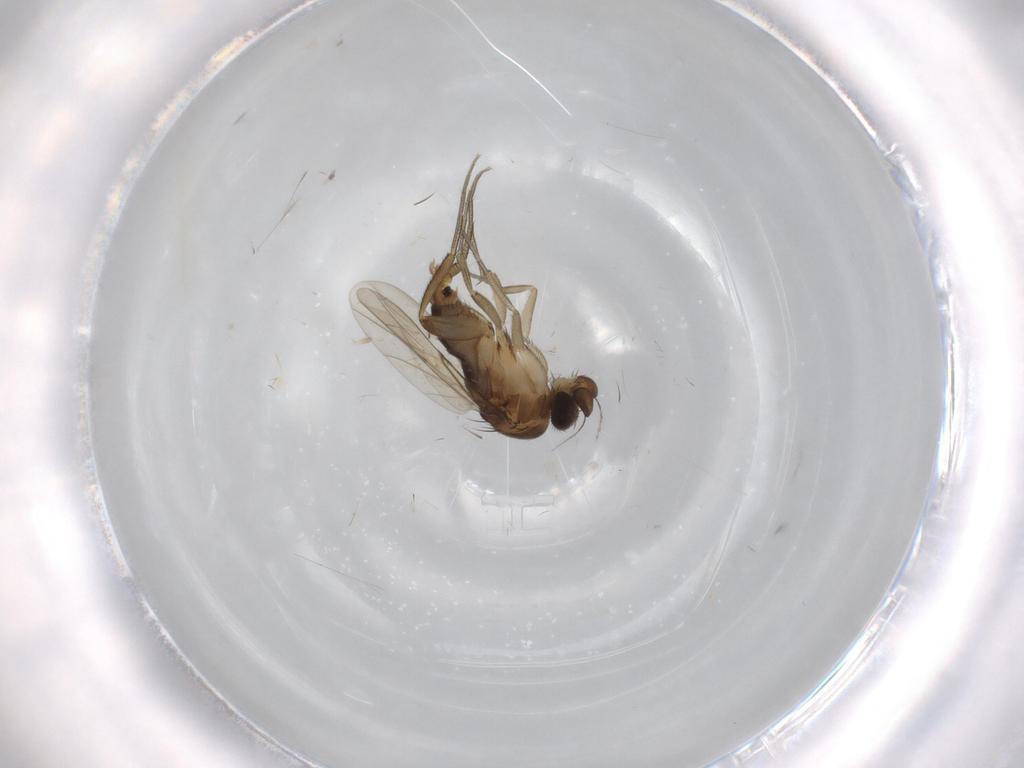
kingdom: Animalia
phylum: Arthropoda
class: Insecta
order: Diptera
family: Phoridae
